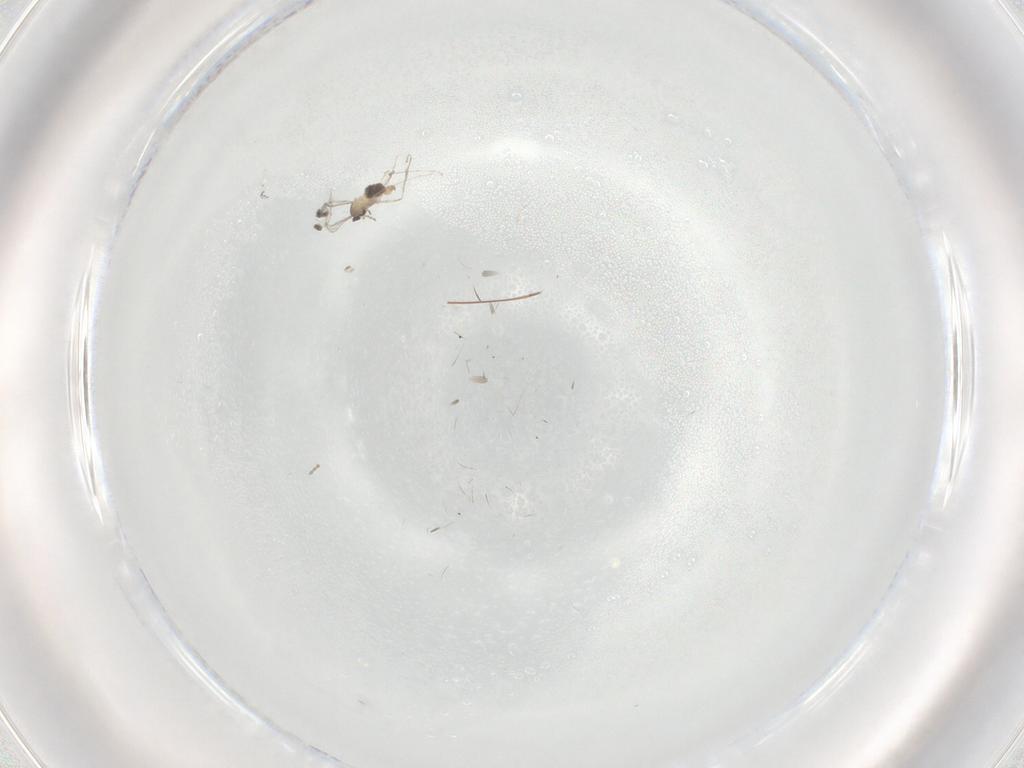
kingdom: Animalia
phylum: Arthropoda
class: Insecta
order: Diptera
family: Cecidomyiidae
